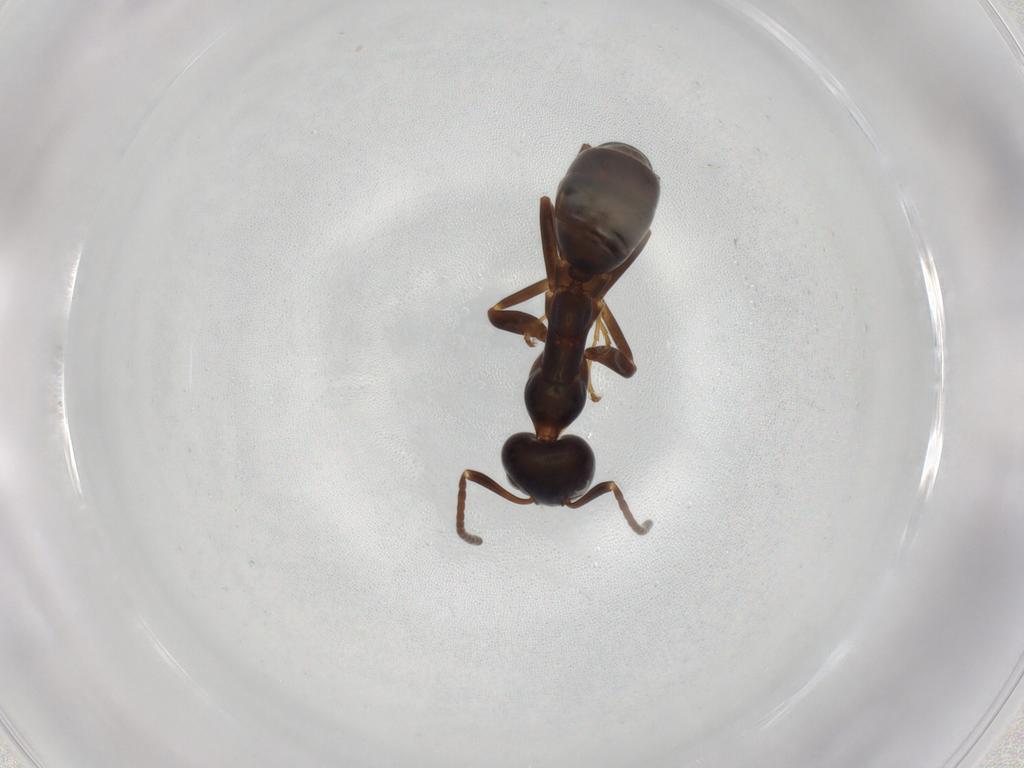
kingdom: Animalia
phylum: Arthropoda
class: Insecta
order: Hymenoptera
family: Formicidae
